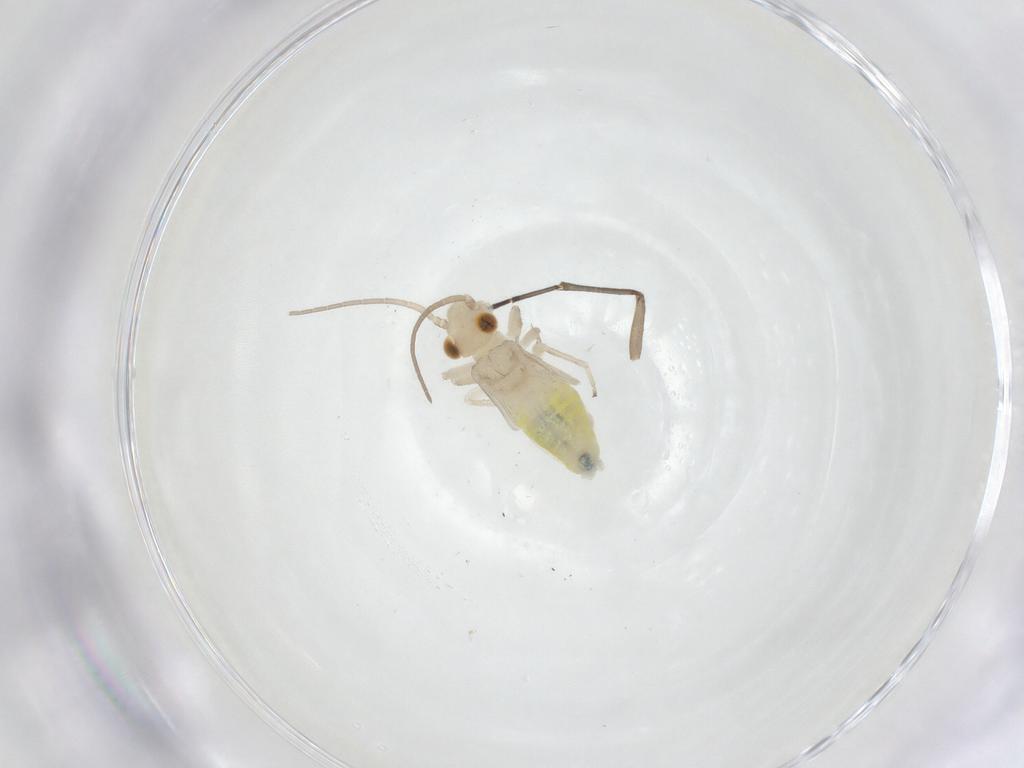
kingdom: Animalia
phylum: Arthropoda
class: Insecta
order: Psocodea
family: Caeciliusidae
